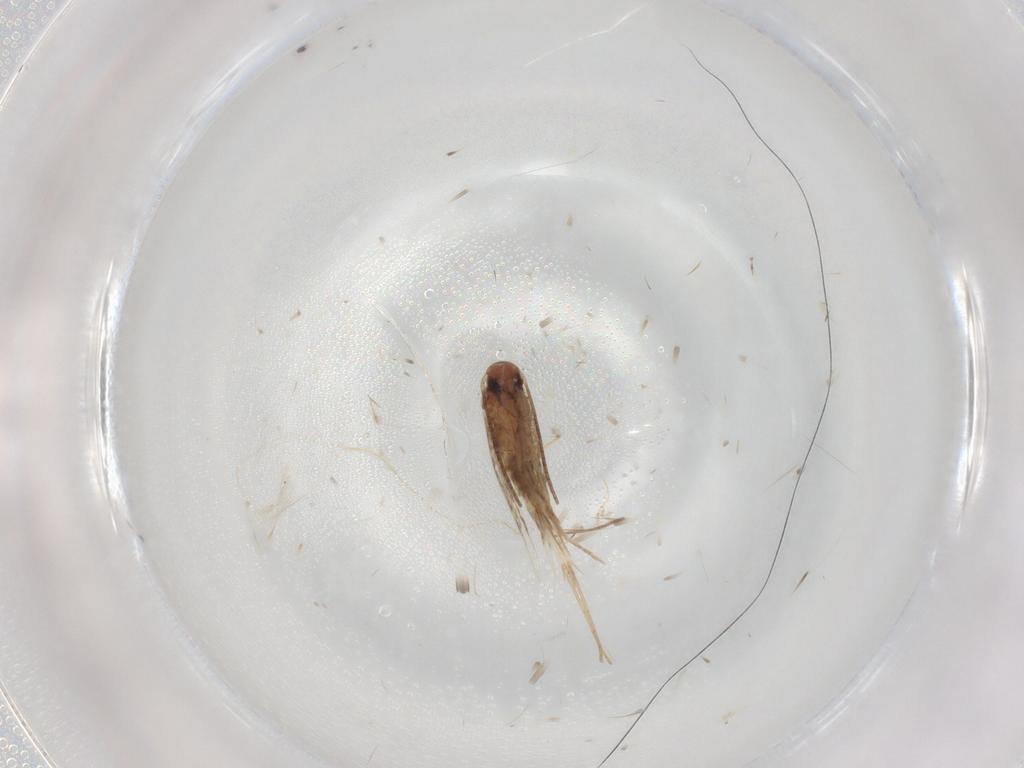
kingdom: Animalia
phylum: Arthropoda
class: Insecta
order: Lepidoptera
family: Gracillariidae
